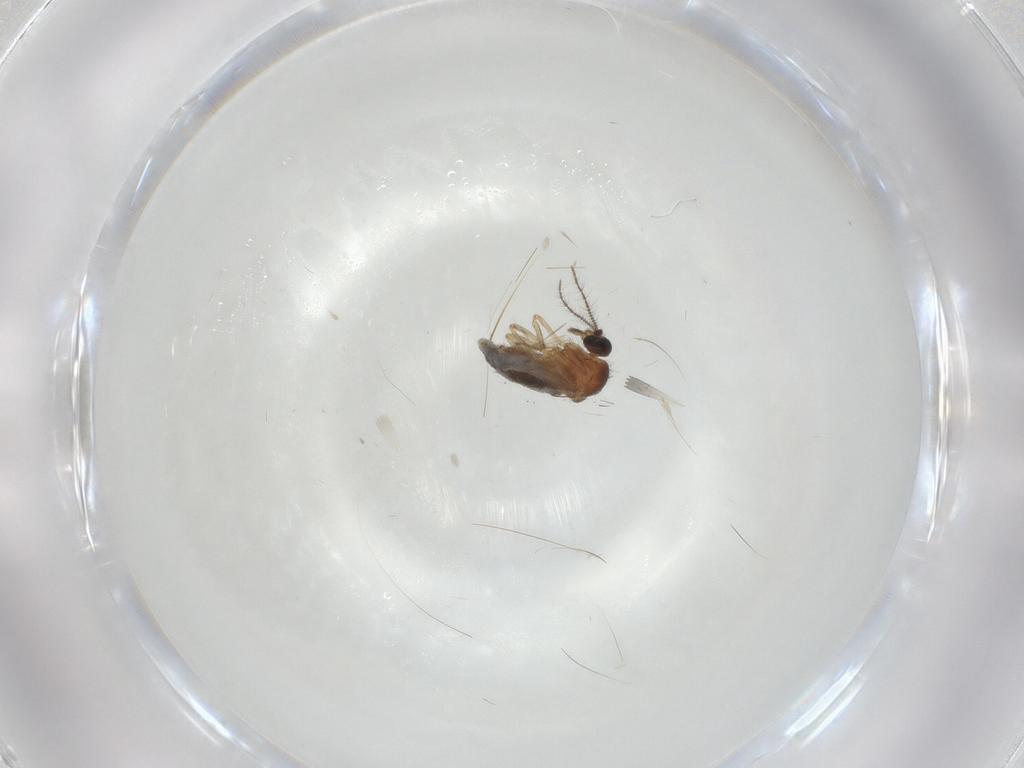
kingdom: Animalia
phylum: Arthropoda
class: Insecta
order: Diptera
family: Ceratopogonidae
